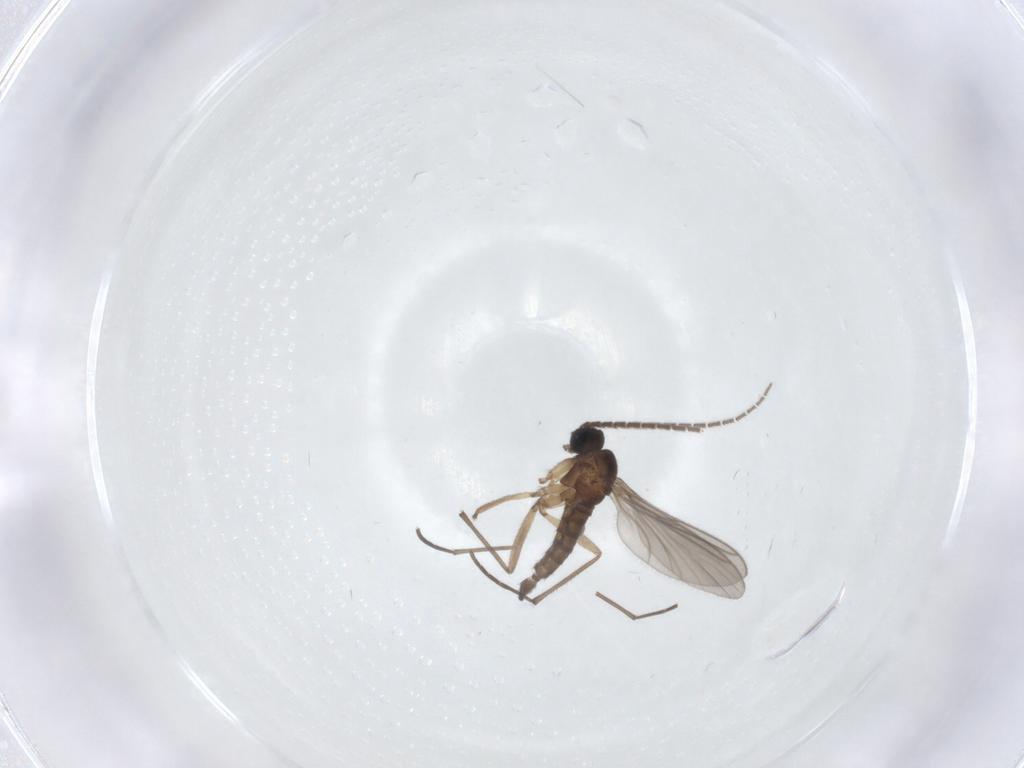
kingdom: Animalia
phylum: Arthropoda
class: Insecta
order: Diptera
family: Cecidomyiidae
